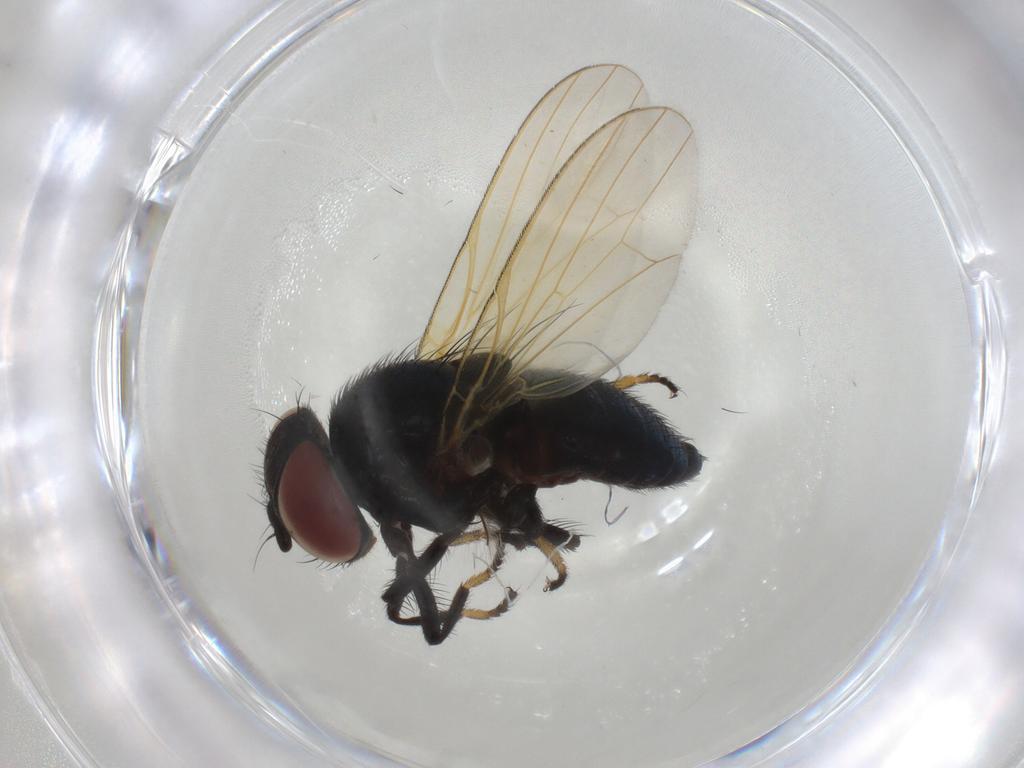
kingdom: Animalia
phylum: Arthropoda
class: Insecta
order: Diptera
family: Lonchaeidae
